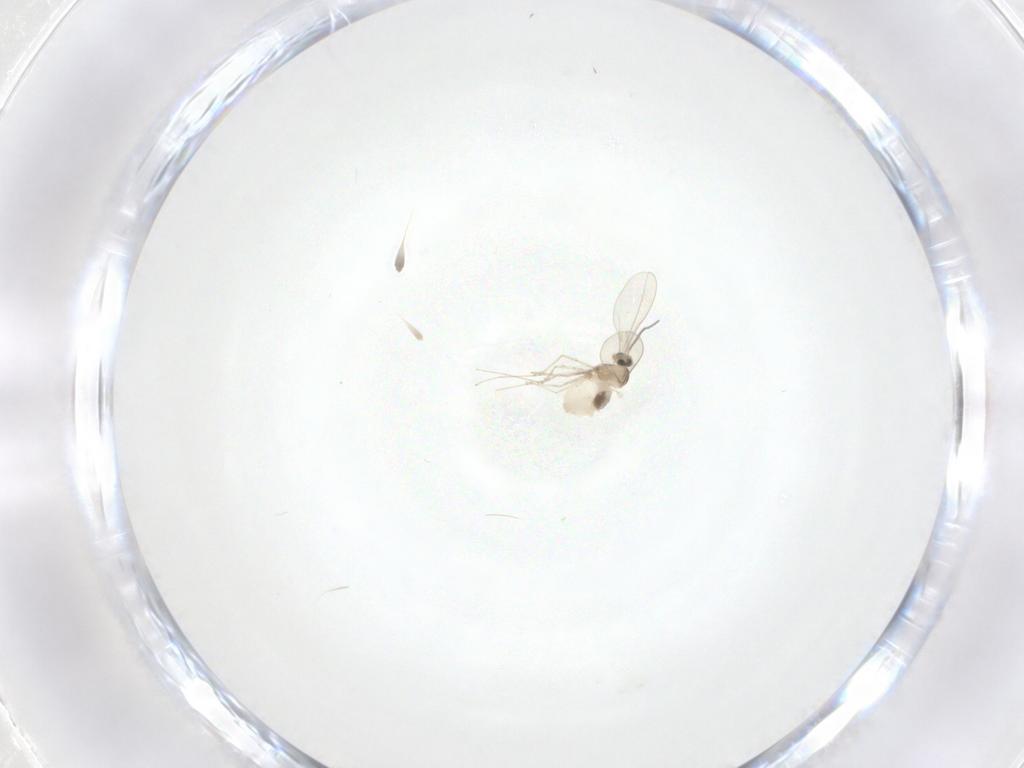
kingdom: Animalia
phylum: Arthropoda
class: Insecta
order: Diptera
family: Cecidomyiidae
